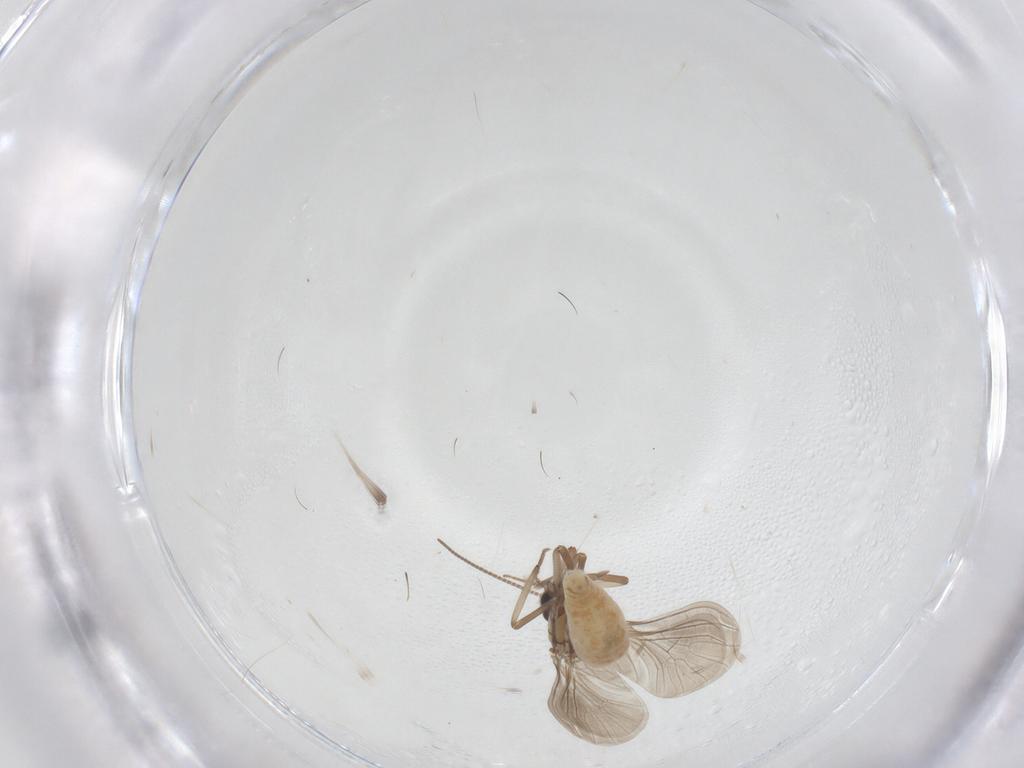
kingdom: Animalia
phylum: Arthropoda
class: Insecta
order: Neuroptera
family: Coniopterygidae
